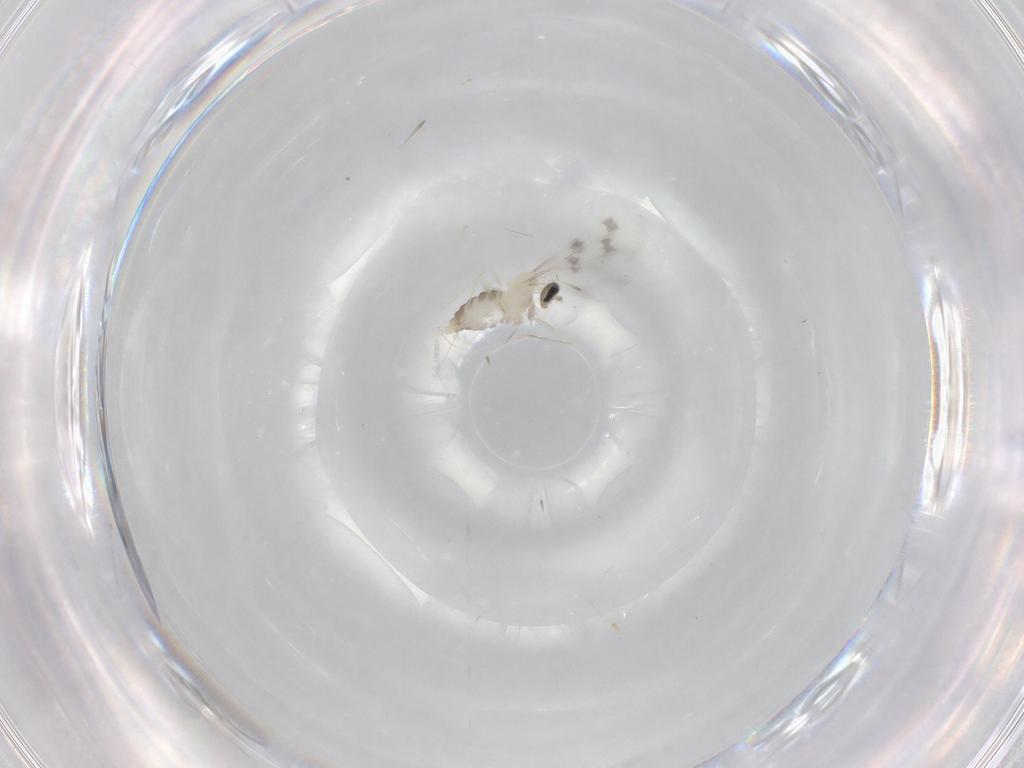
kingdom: Animalia
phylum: Arthropoda
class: Insecta
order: Diptera
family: Cecidomyiidae
